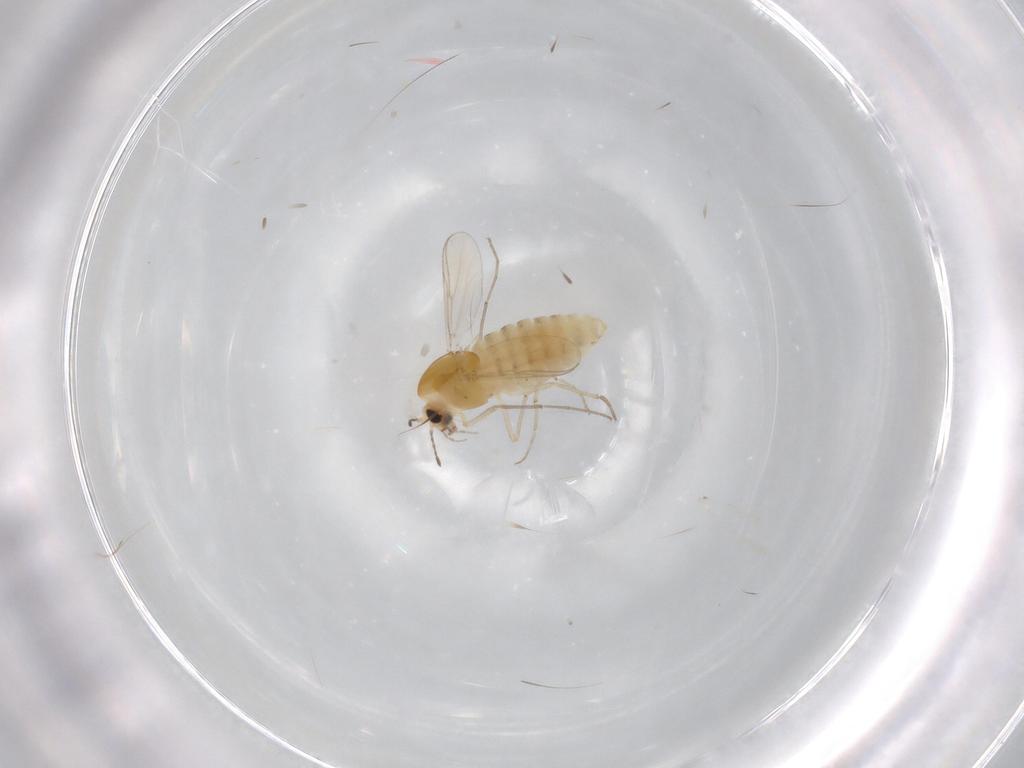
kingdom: Animalia
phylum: Arthropoda
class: Insecta
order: Diptera
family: Chironomidae
